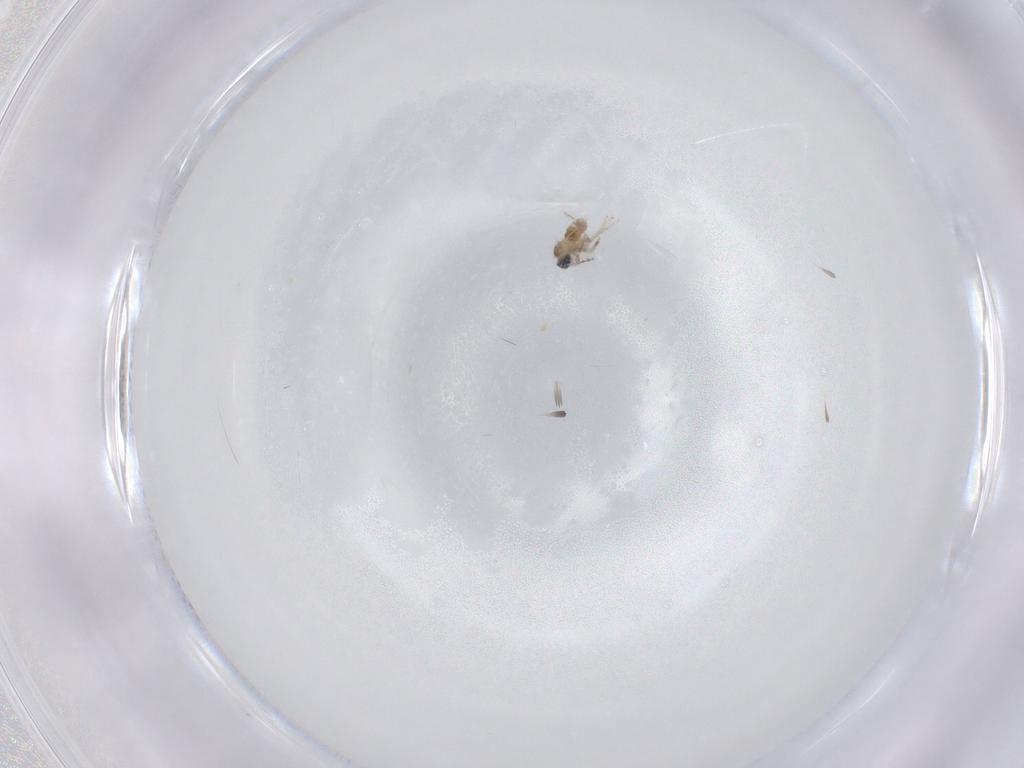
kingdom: Animalia
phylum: Arthropoda
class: Insecta
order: Diptera
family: Cecidomyiidae
